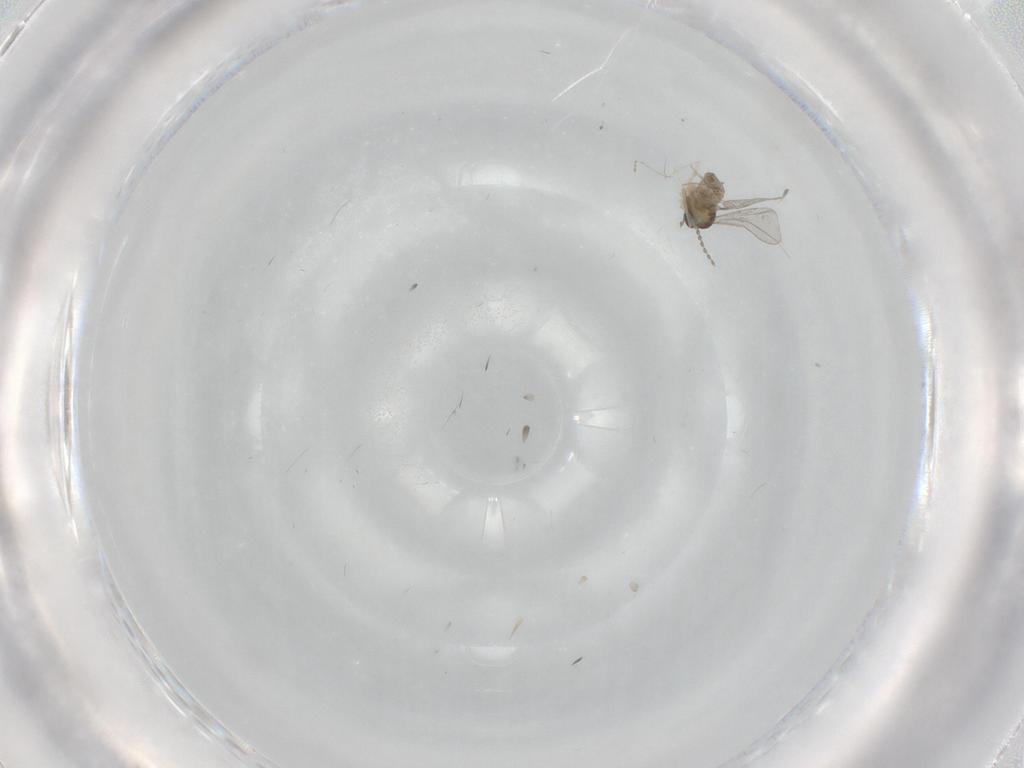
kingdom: Animalia
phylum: Arthropoda
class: Insecta
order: Diptera
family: Cecidomyiidae
